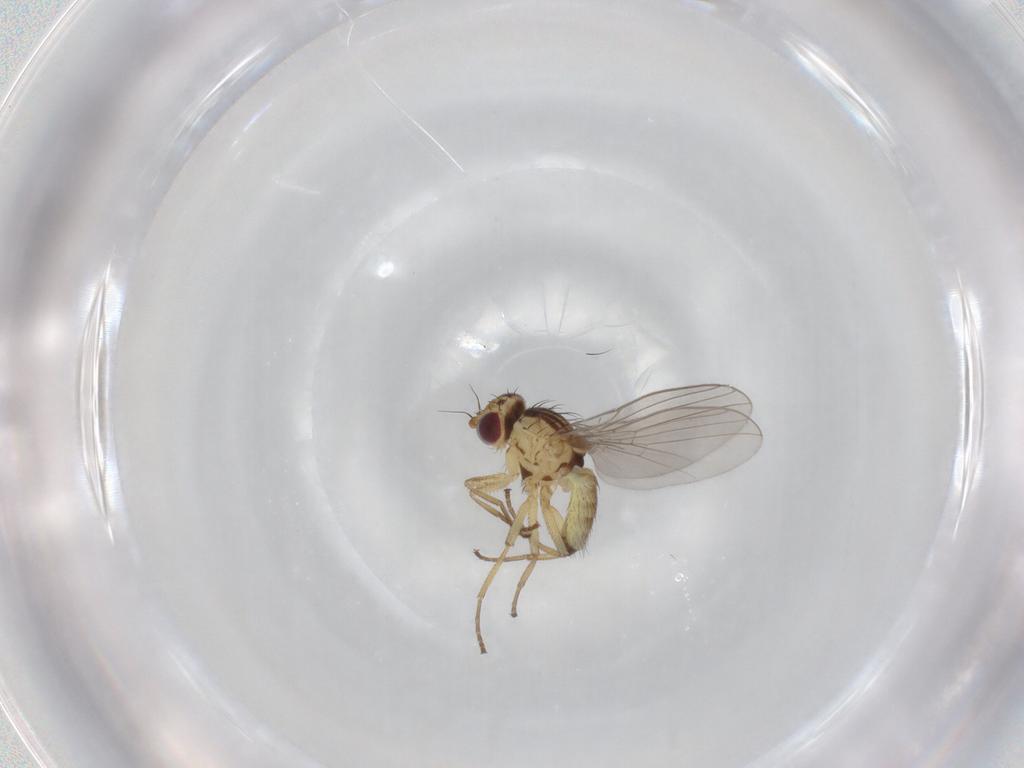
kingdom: Animalia
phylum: Arthropoda
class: Insecta
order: Diptera
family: Agromyzidae
